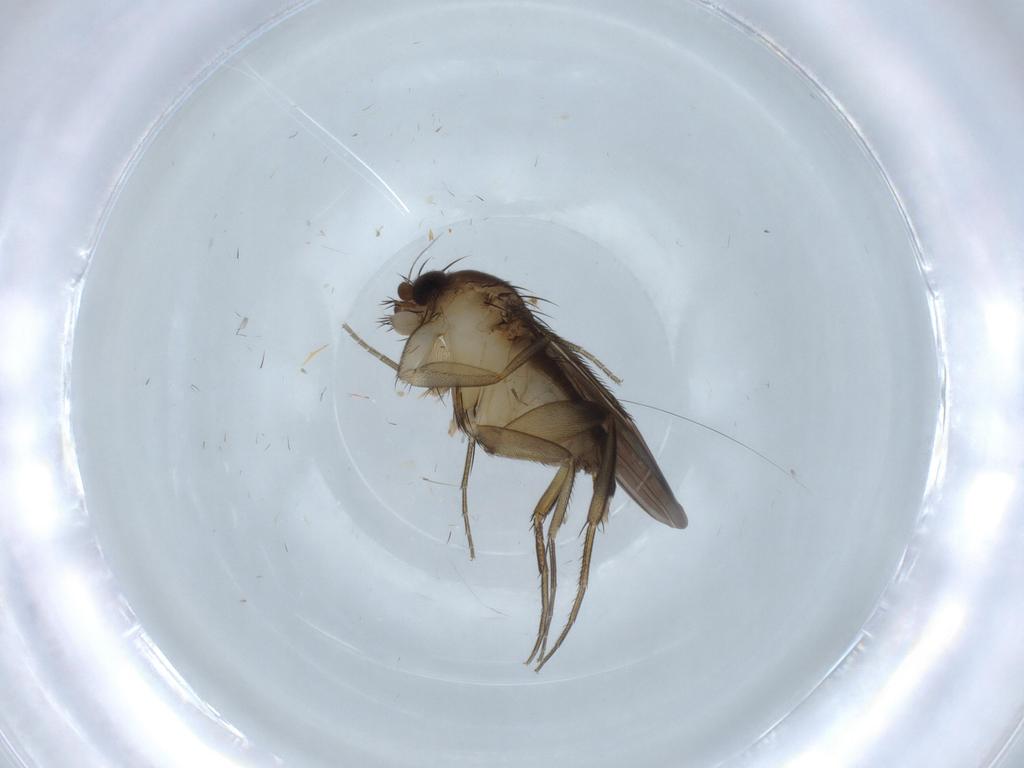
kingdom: Animalia
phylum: Arthropoda
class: Insecta
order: Diptera
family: Phoridae
